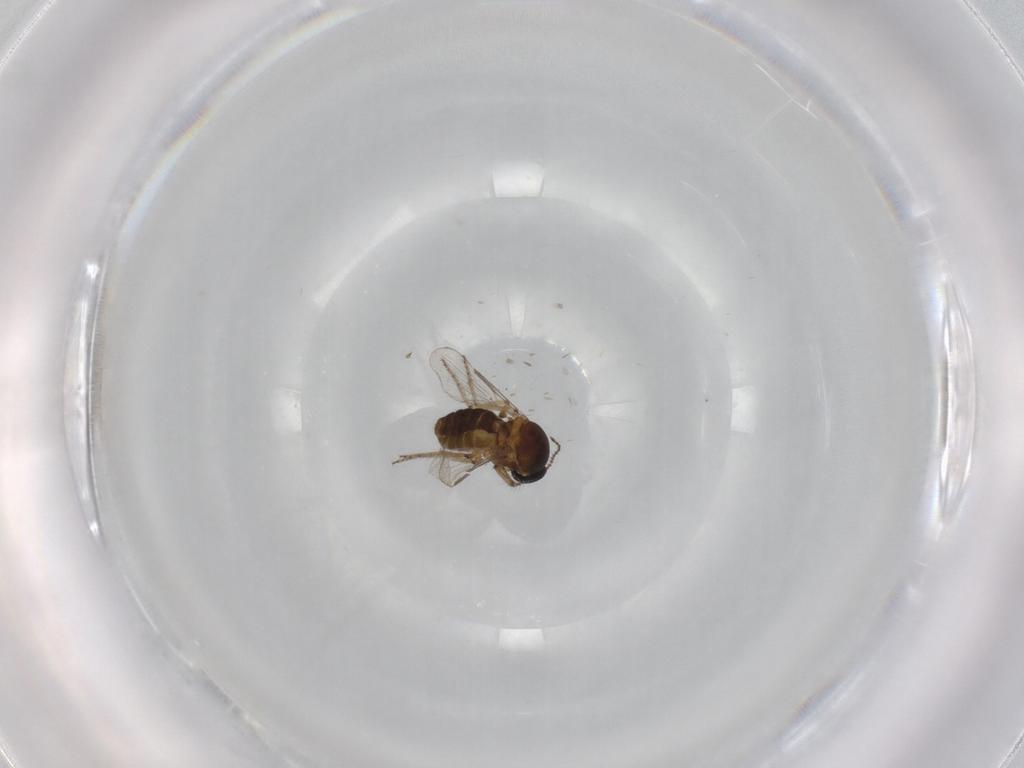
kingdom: Animalia
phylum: Arthropoda
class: Insecta
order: Diptera
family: Ceratopogonidae
